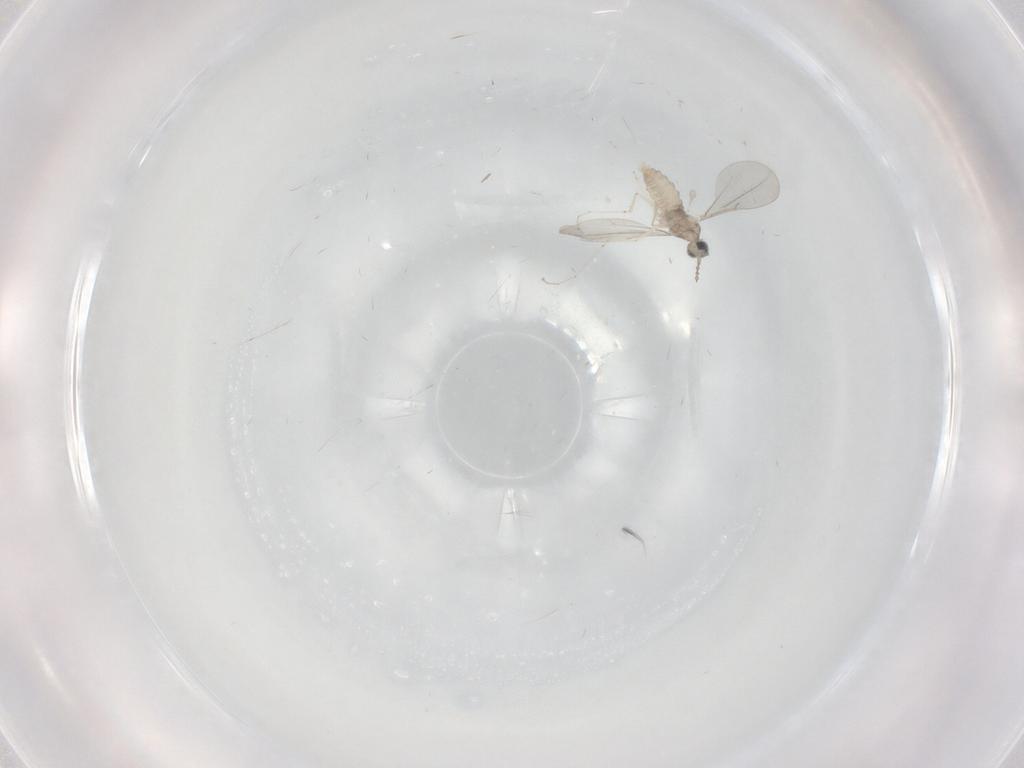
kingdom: Animalia
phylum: Arthropoda
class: Insecta
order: Diptera
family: Keroplatidae
